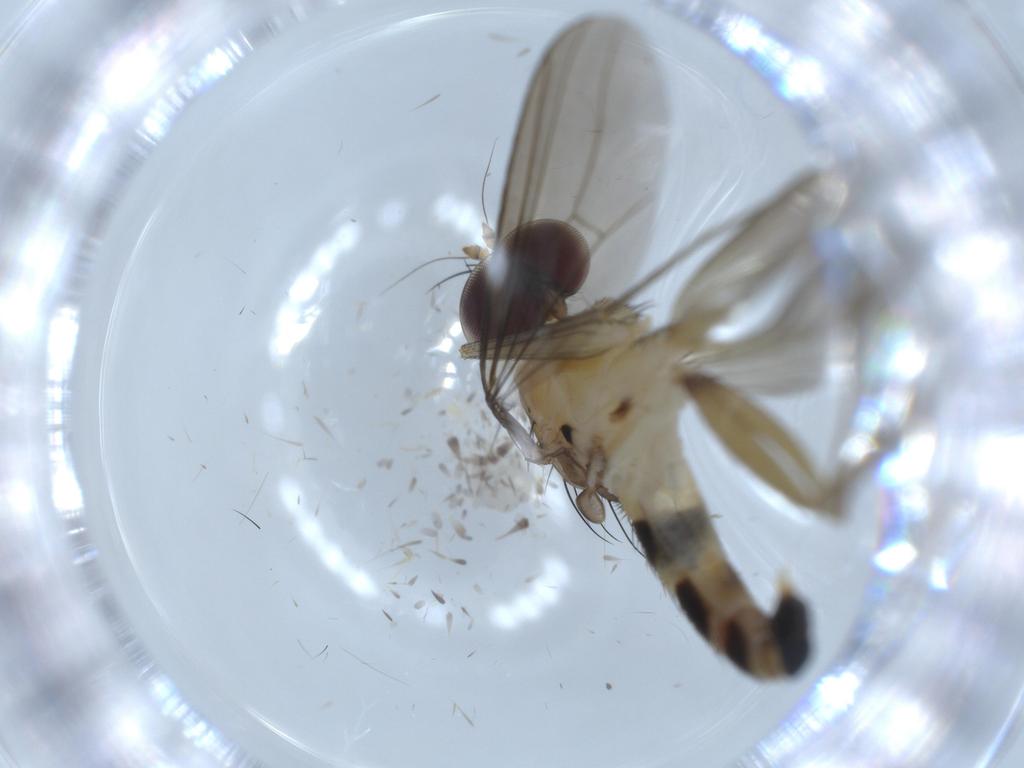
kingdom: Animalia
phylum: Arthropoda
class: Insecta
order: Diptera
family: Dolichopodidae
